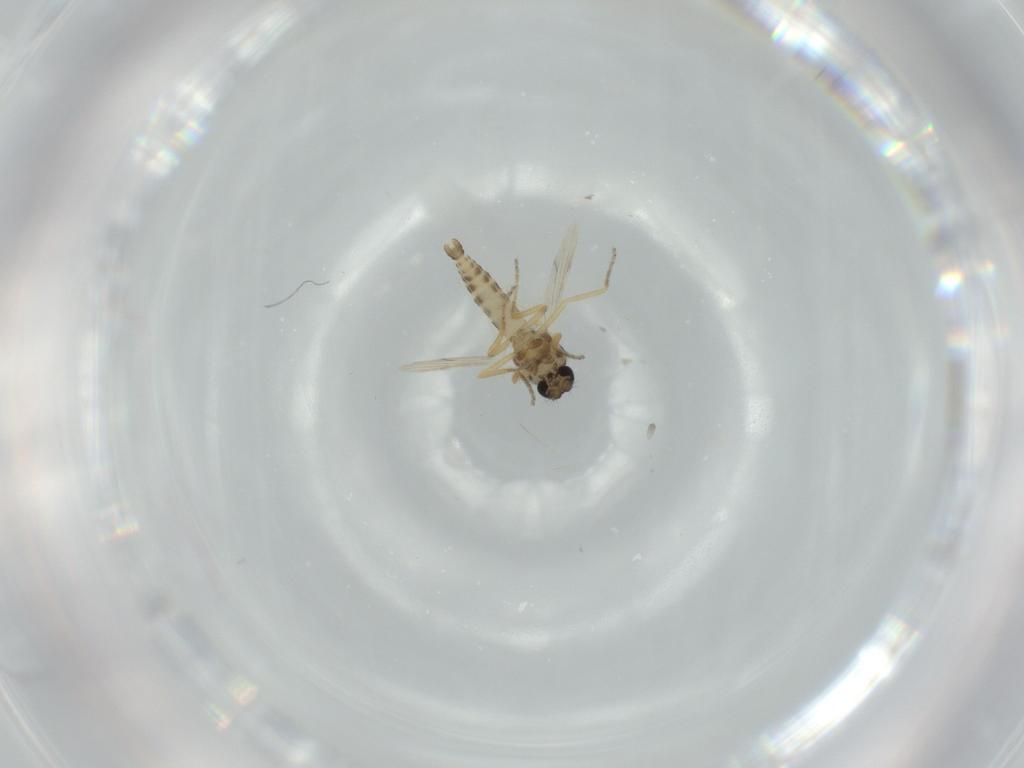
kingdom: Animalia
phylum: Arthropoda
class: Insecta
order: Diptera
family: Ceratopogonidae
